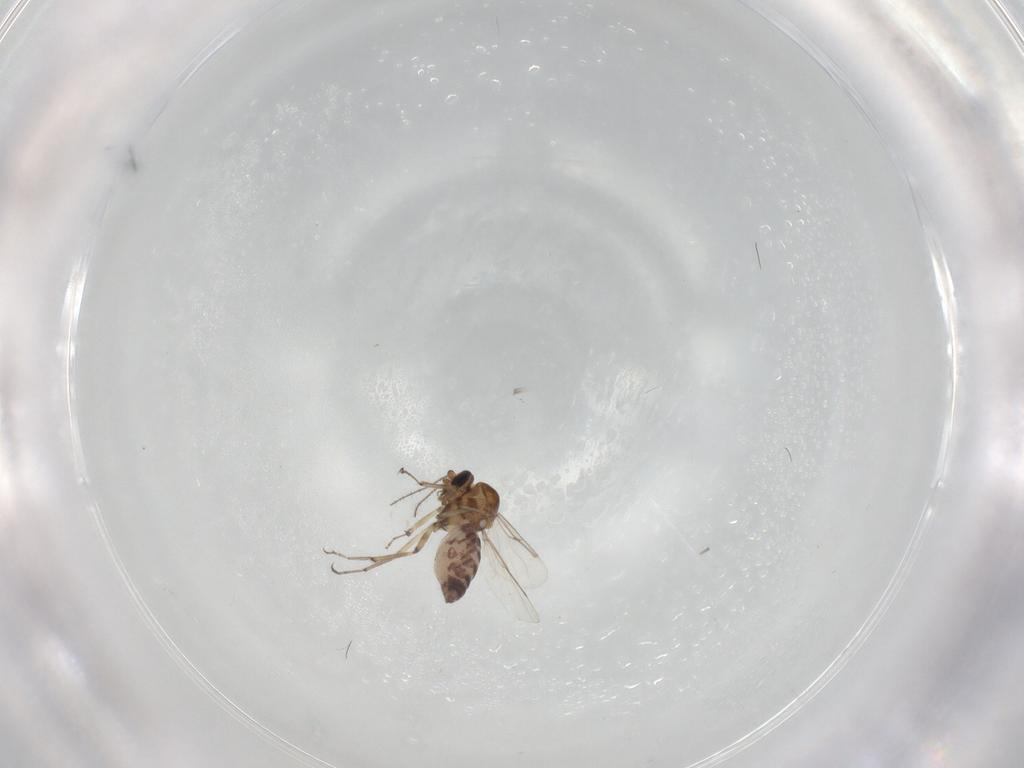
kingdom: Animalia
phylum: Arthropoda
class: Insecta
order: Diptera
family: Ceratopogonidae
